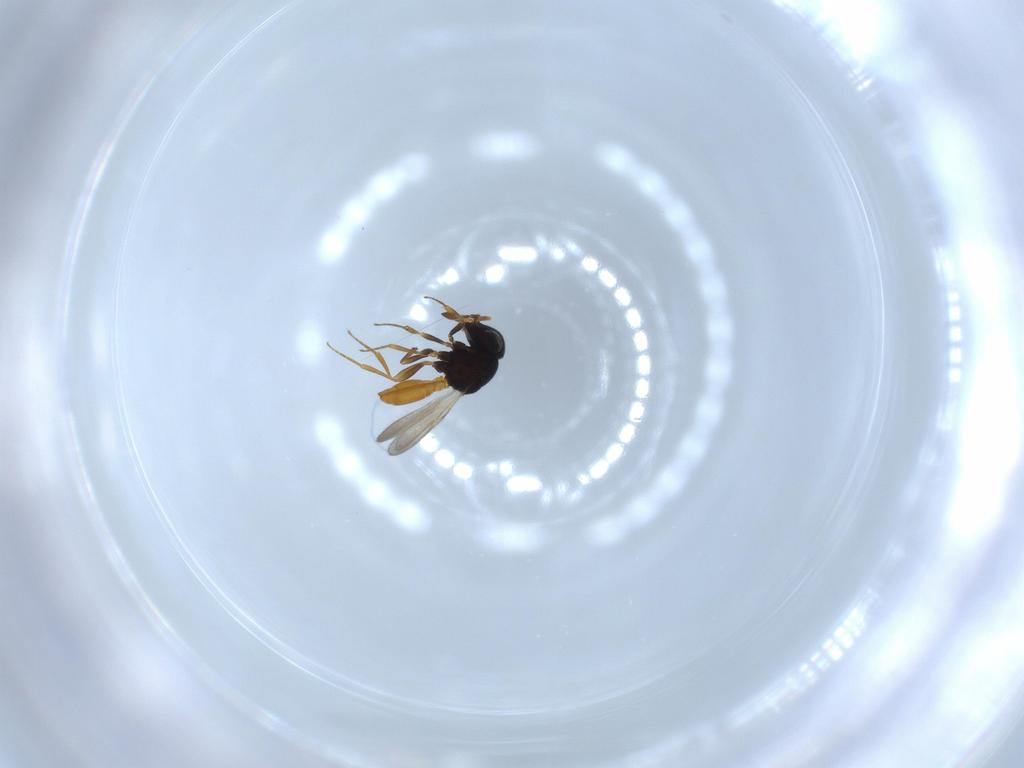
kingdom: Animalia
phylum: Arthropoda
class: Insecta
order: Hymenoptera
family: Scelionidae
